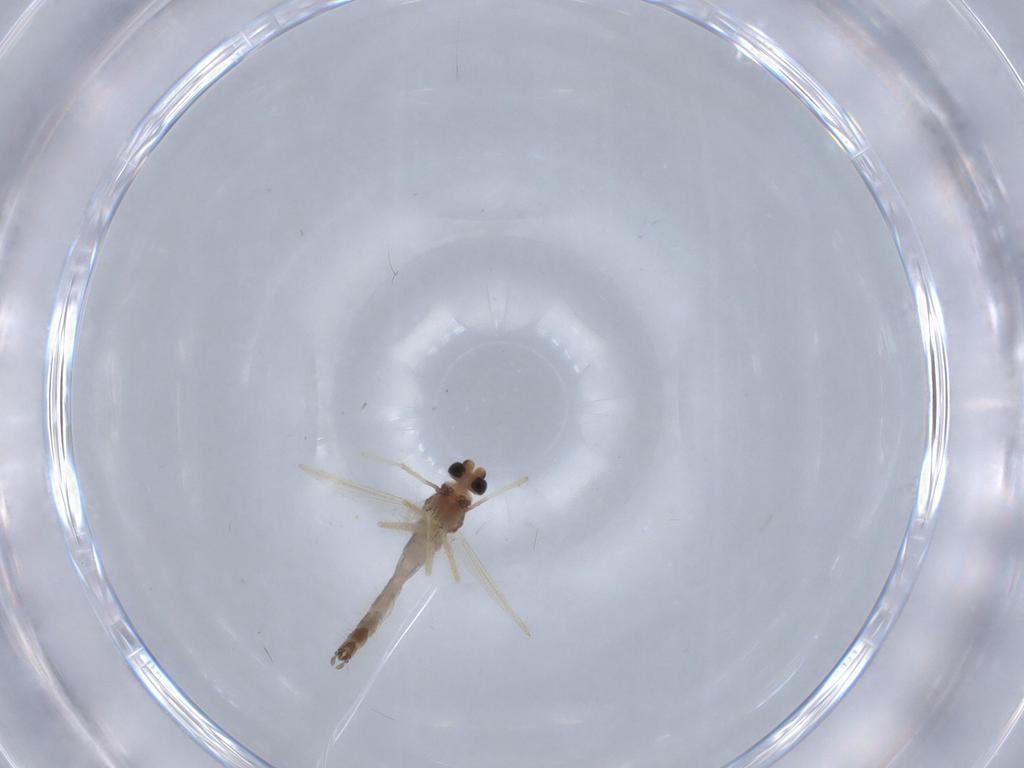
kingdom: Animalia
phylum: Arthropoda
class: Insecta
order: Diptera
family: Chironomidae
